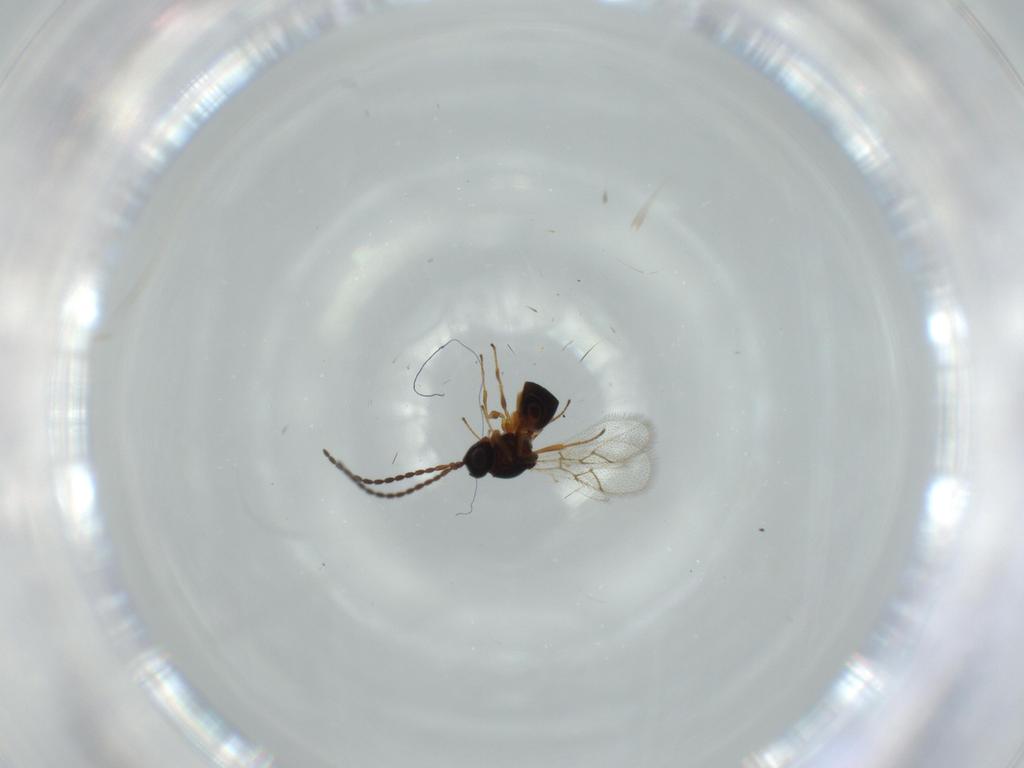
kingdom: Animalia
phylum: Arthropoda
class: Insecta
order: Hymenoptera
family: Figitidae
